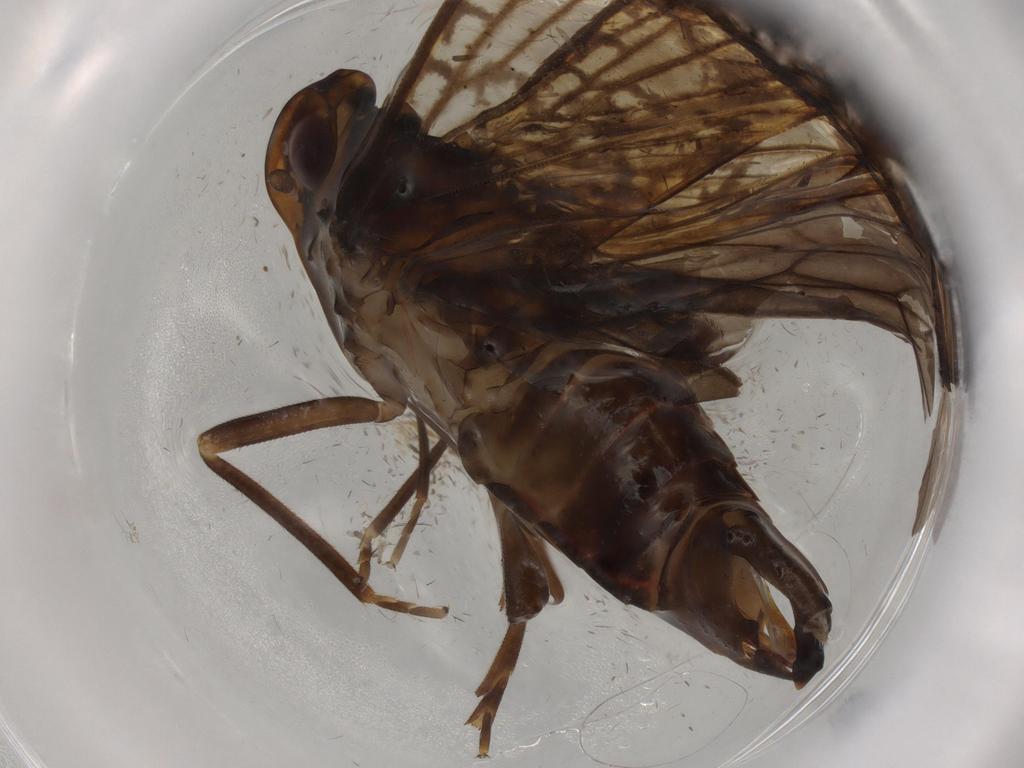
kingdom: Animalia
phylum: Arthropoda
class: Insecta
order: Hemiptera
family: Cixiidae
